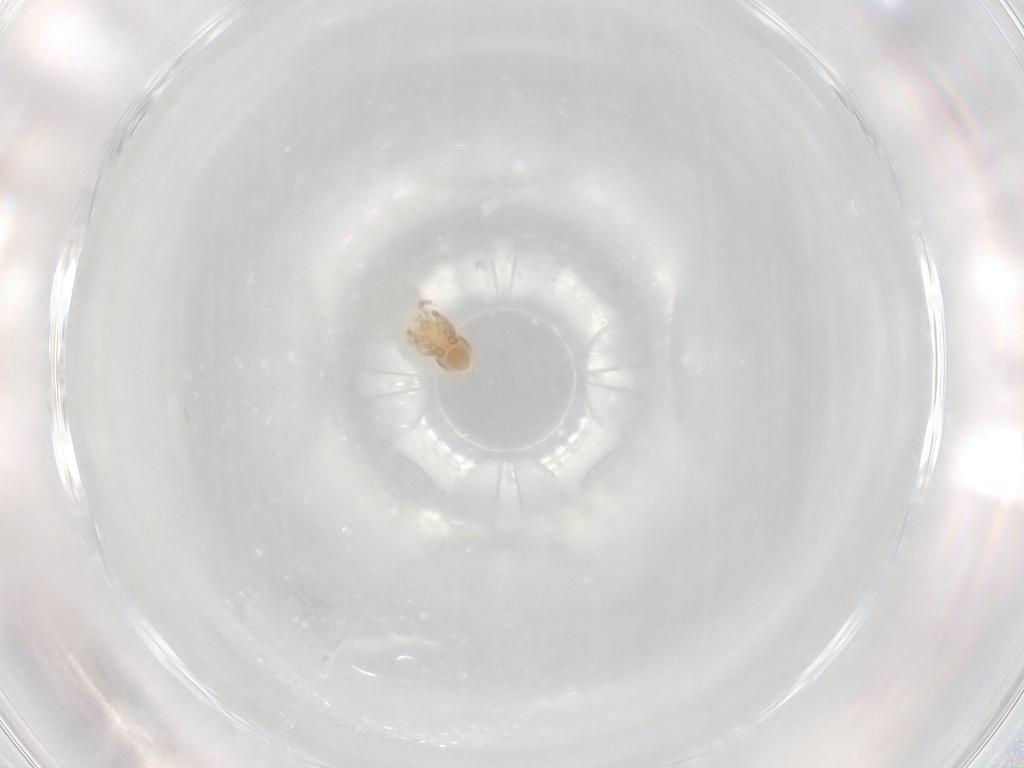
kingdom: Animalia
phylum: Arthropoda
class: Arachnida
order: Mesostigmata
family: Parasitidae
